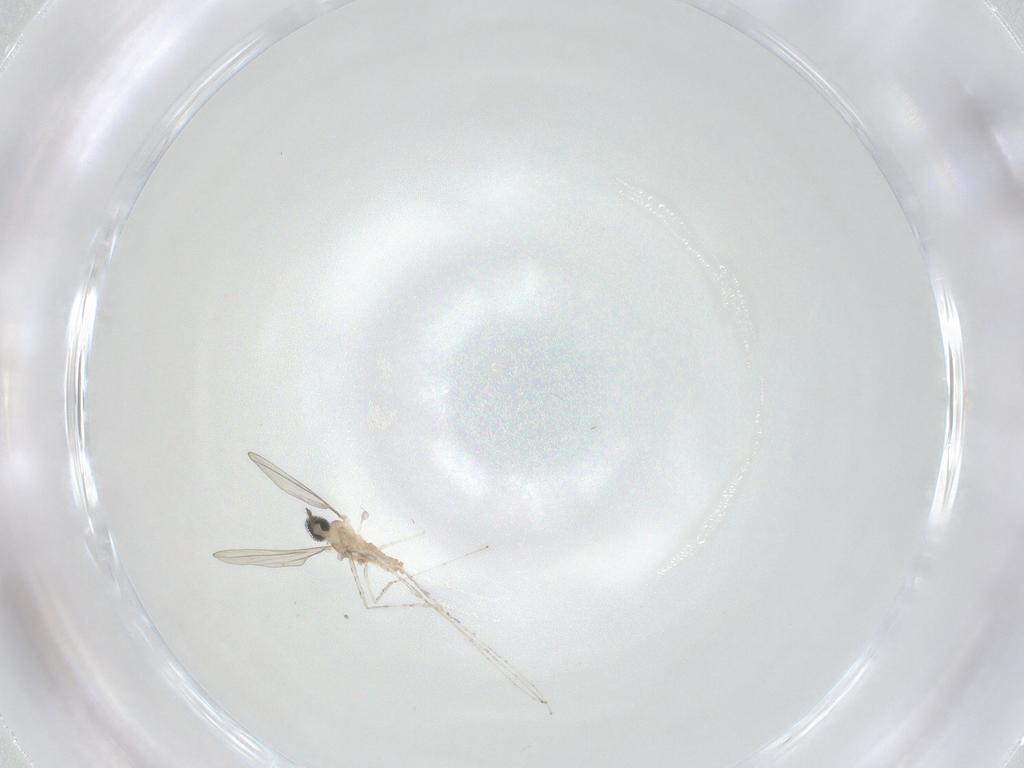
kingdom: Animalia
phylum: Arthropoda
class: Insecta
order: Diptera
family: Cecidomyiidae
